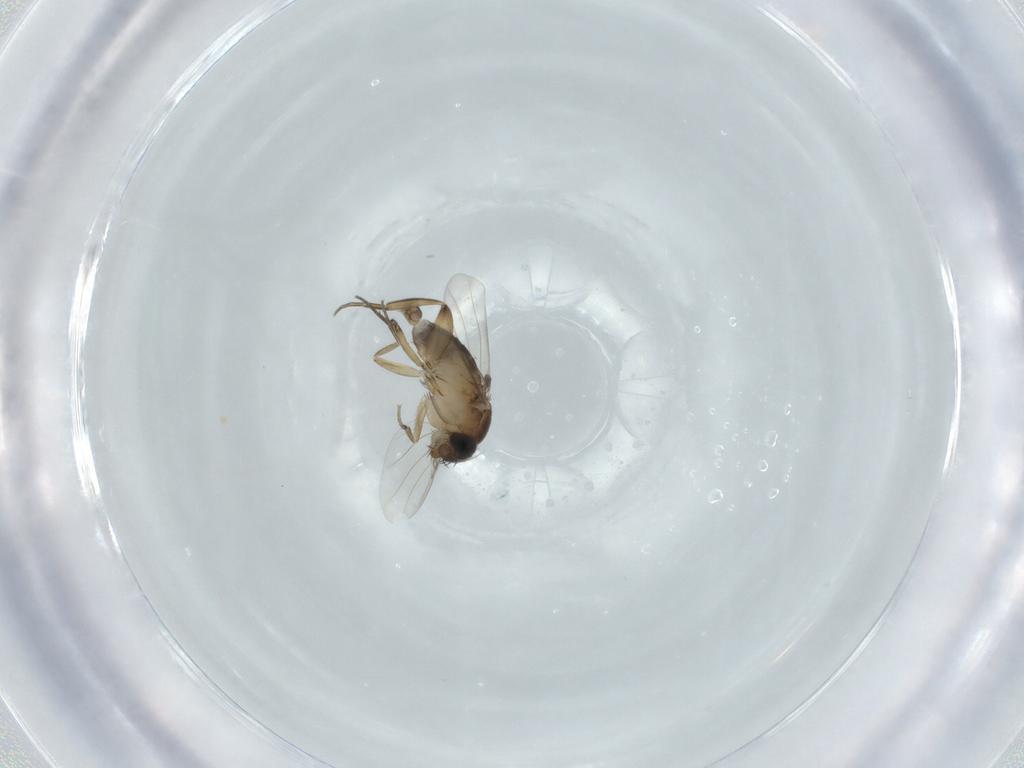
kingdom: Animalia
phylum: Arthropoda
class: Insecta
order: Diptera
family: Phoridae
